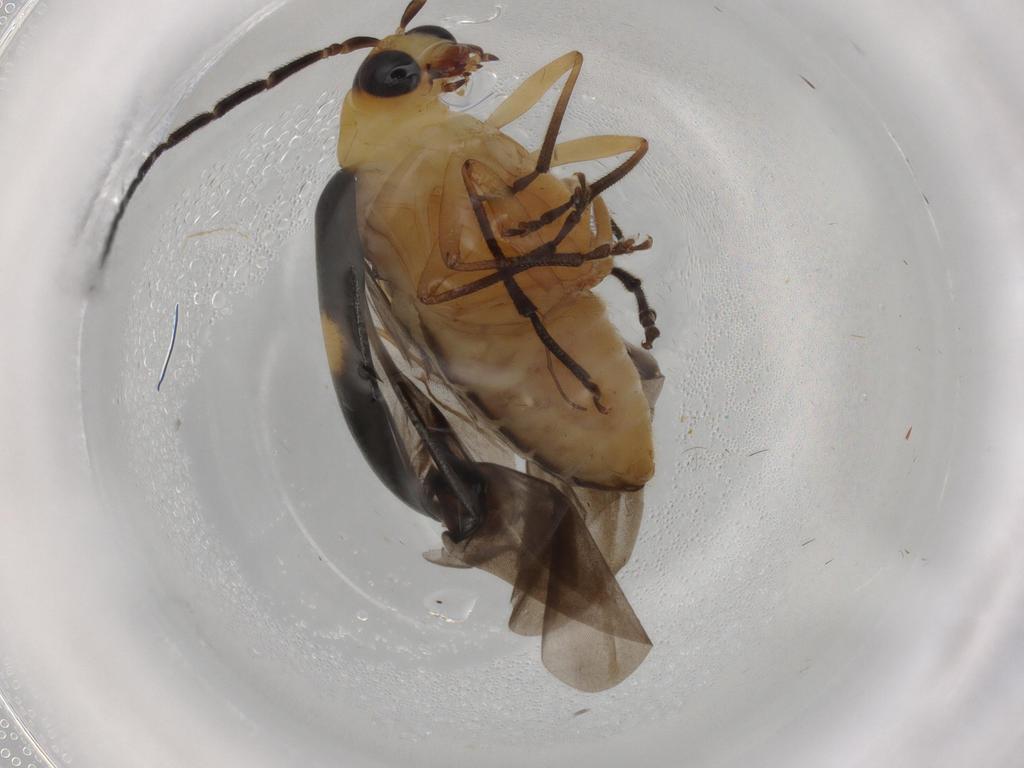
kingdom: Animalia
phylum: Arthropoda
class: Insecta
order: Coleoptera
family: Chrysomelidae
